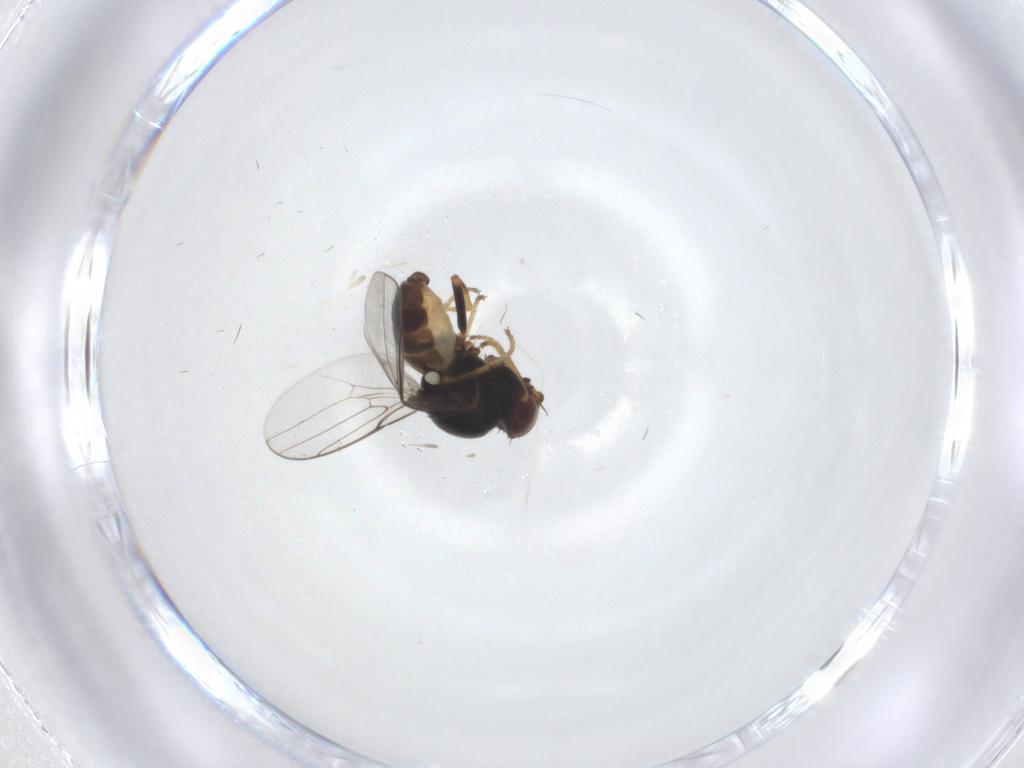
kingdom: Animalia
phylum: Arthropoda
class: Insecta
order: Diptera
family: Chloropidae
